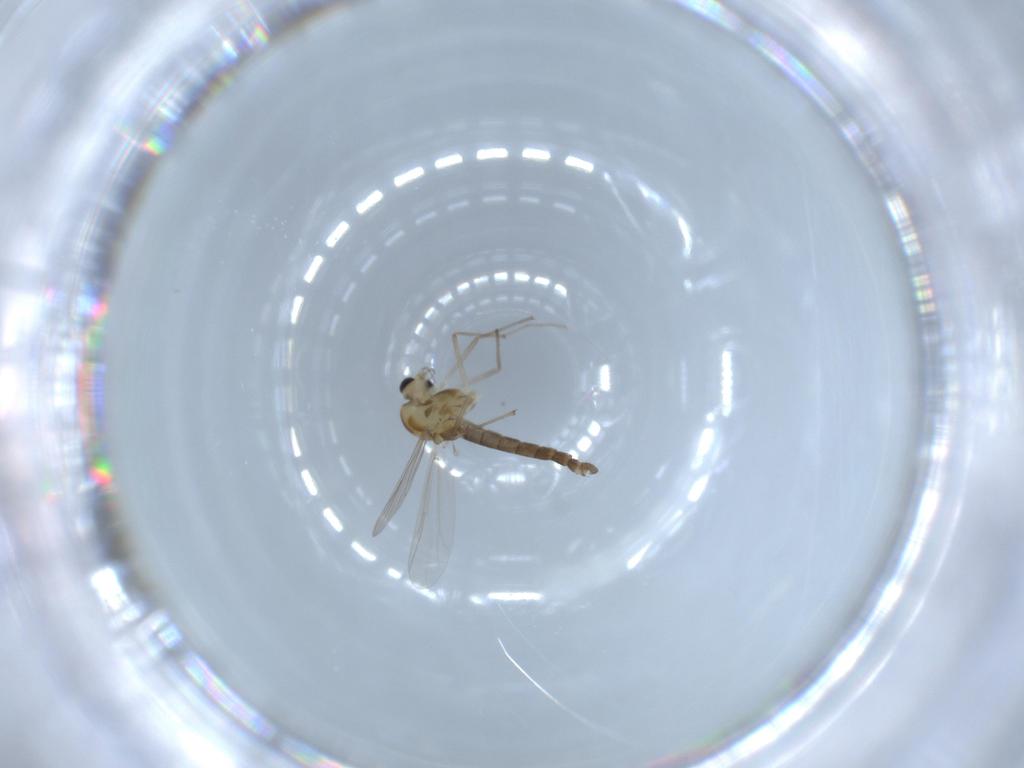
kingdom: Animalia
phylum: Arthropoda
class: Insecta
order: Diptera
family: Chironomidae
